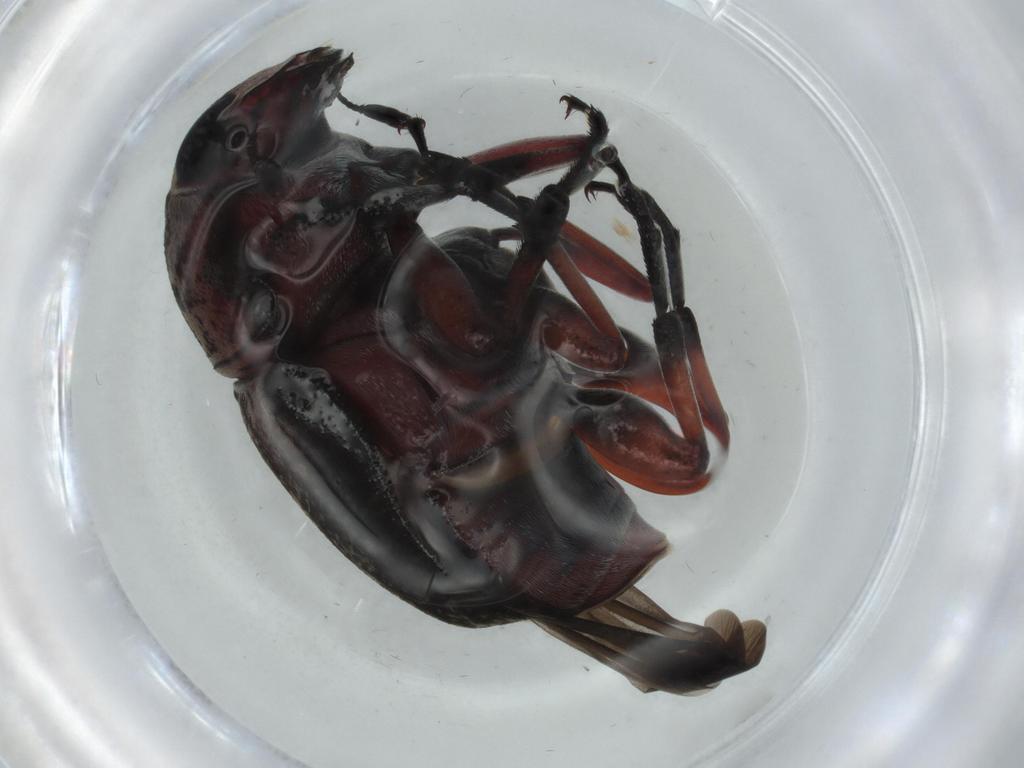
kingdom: Animalia
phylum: Arthropoda
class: Insecta
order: Coleoptera
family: Curculionidae
